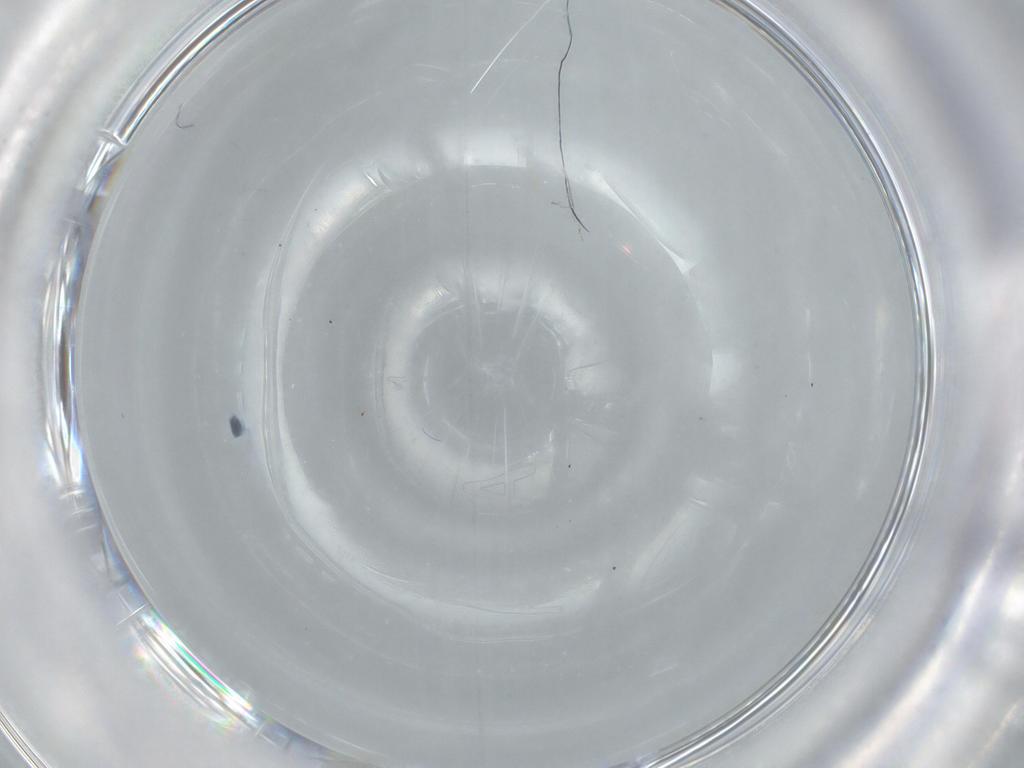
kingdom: Animalia
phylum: Arthropoda
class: Arachnida
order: Mesostigmata
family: Blattisociidae
